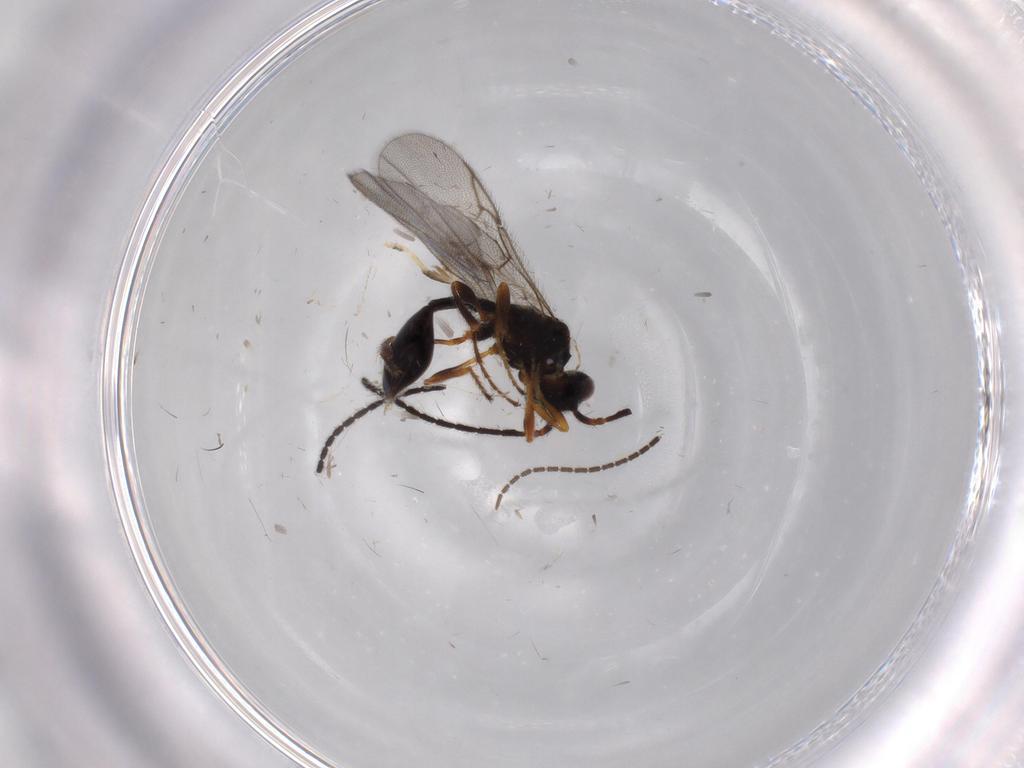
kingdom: Animalia
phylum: Arthropoda
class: Insecta
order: Hymenoptera
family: Diapriidae
